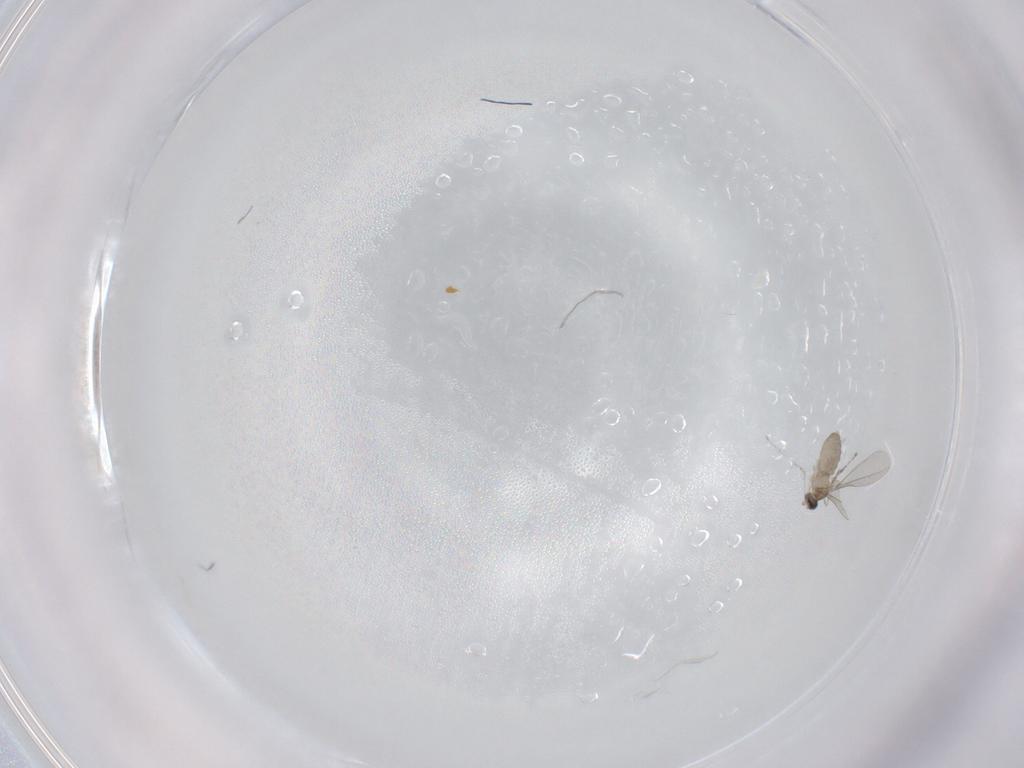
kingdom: Animalia
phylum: Arthropoda
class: Insecta
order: Diptera
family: Cecidomyiidae
